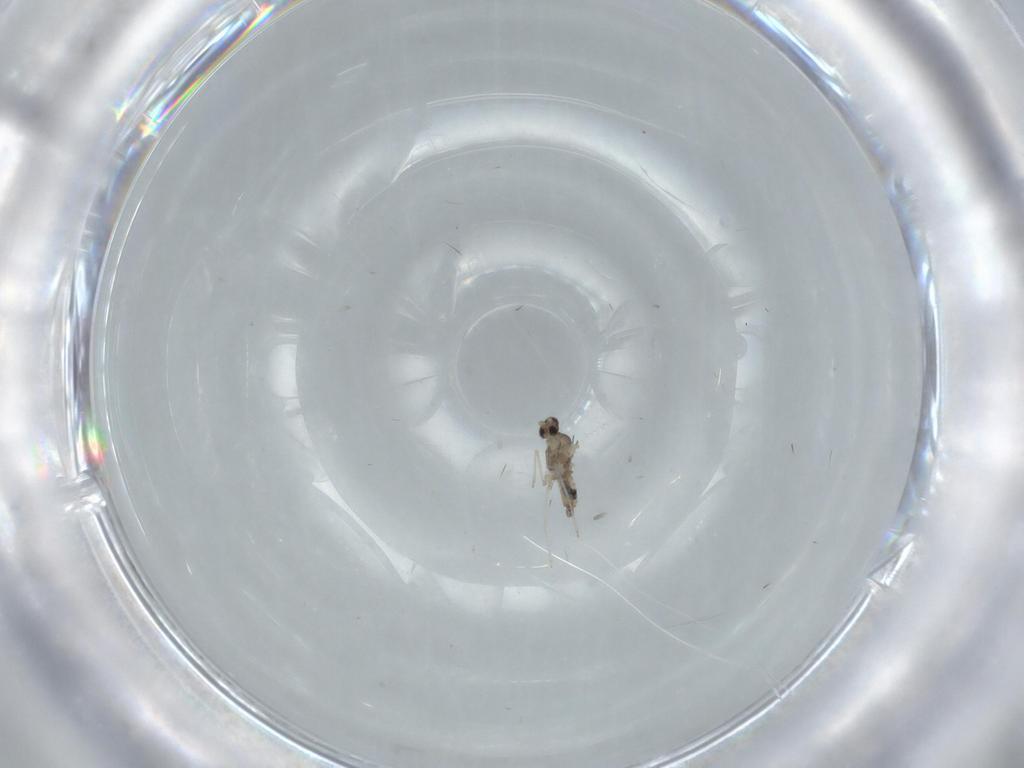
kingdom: Animalia
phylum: Arthropoda
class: Insecta
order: Diptera
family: Cecidomyiidae
